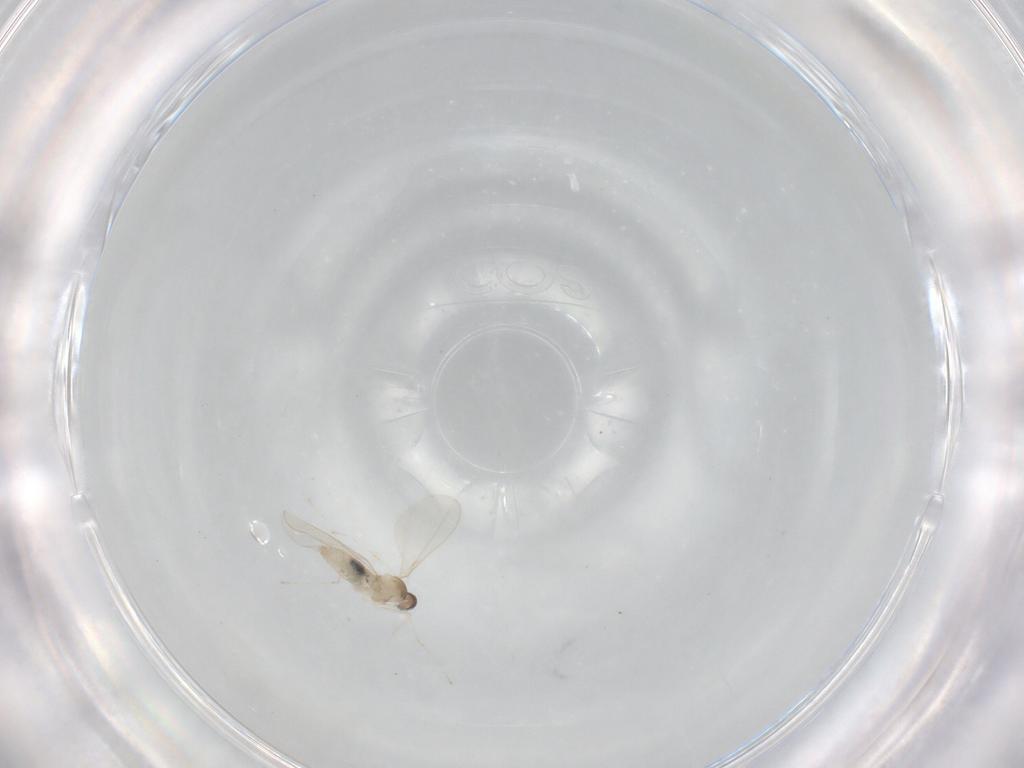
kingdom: Animalia
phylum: Arthropoda
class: Insecta
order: Diptera
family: Cecidomyiidae
